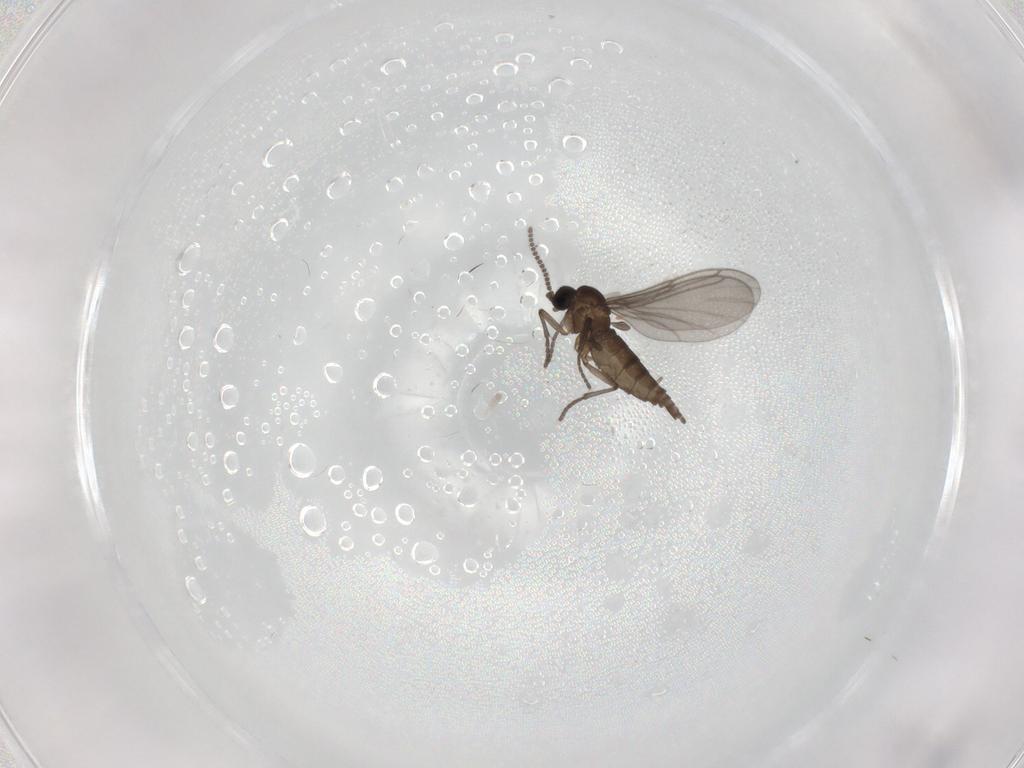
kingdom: Animalia
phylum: Arthropoda
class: Insecta
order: Diptera
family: Mycetophilidae
